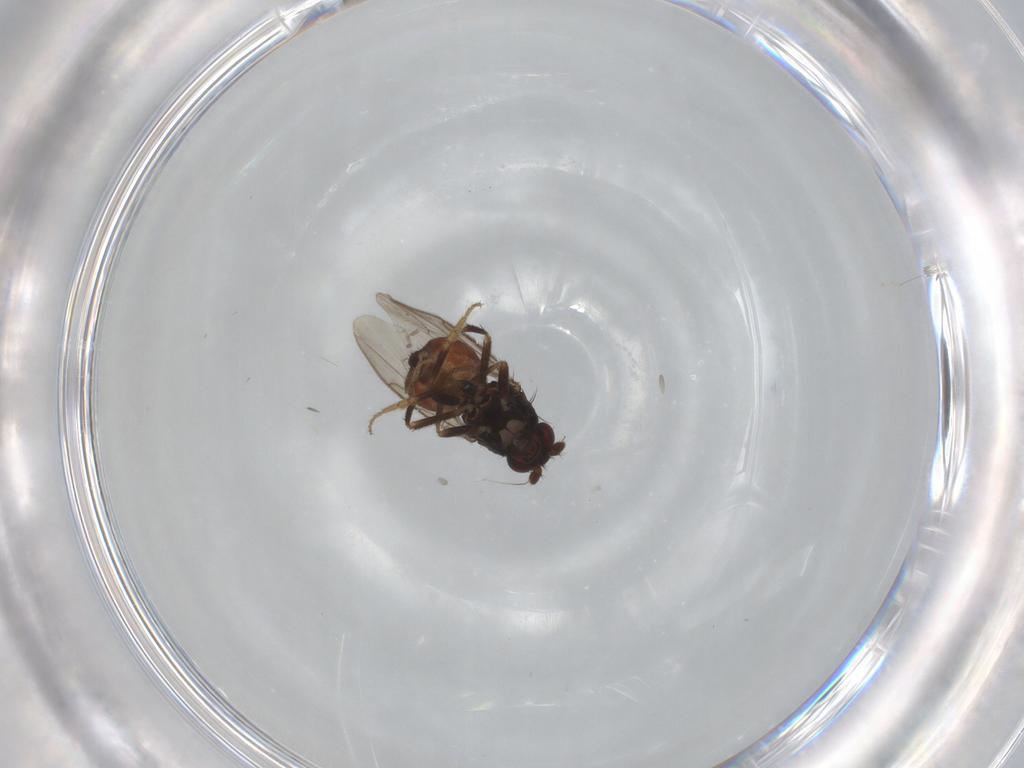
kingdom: Animalia
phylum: Arthropoda
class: Insecta
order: Diptera
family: Sphaeroceridae
